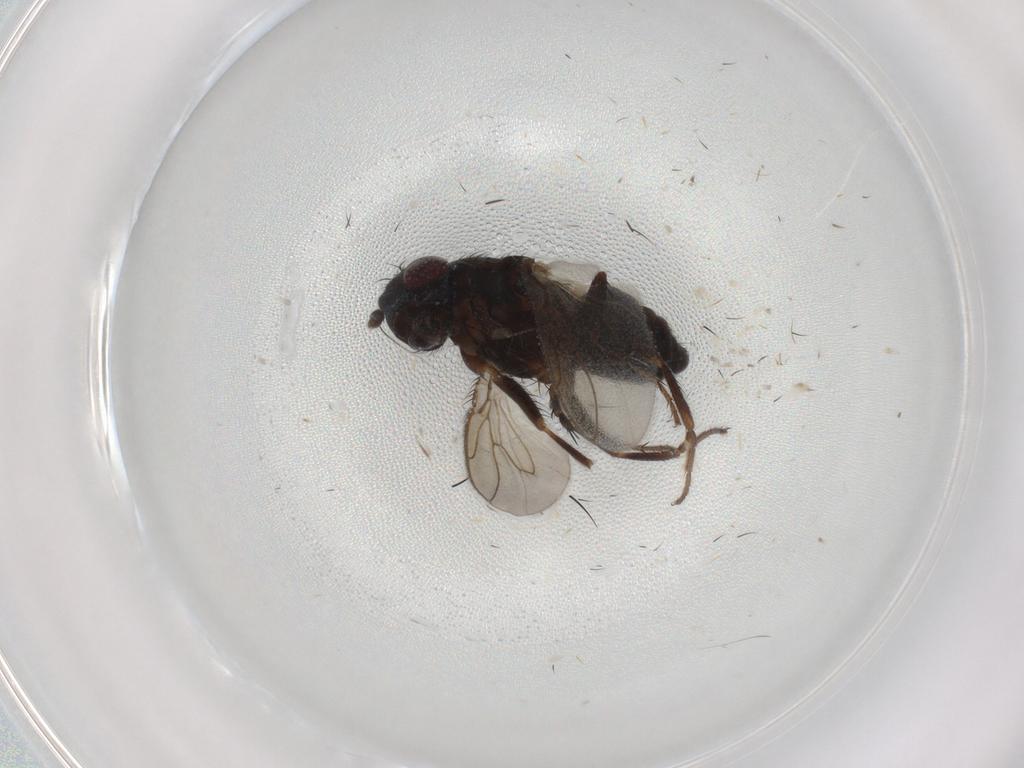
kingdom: Animalia
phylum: Arthropoda
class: Insecta
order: Diptera
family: Sphaeroceridae
